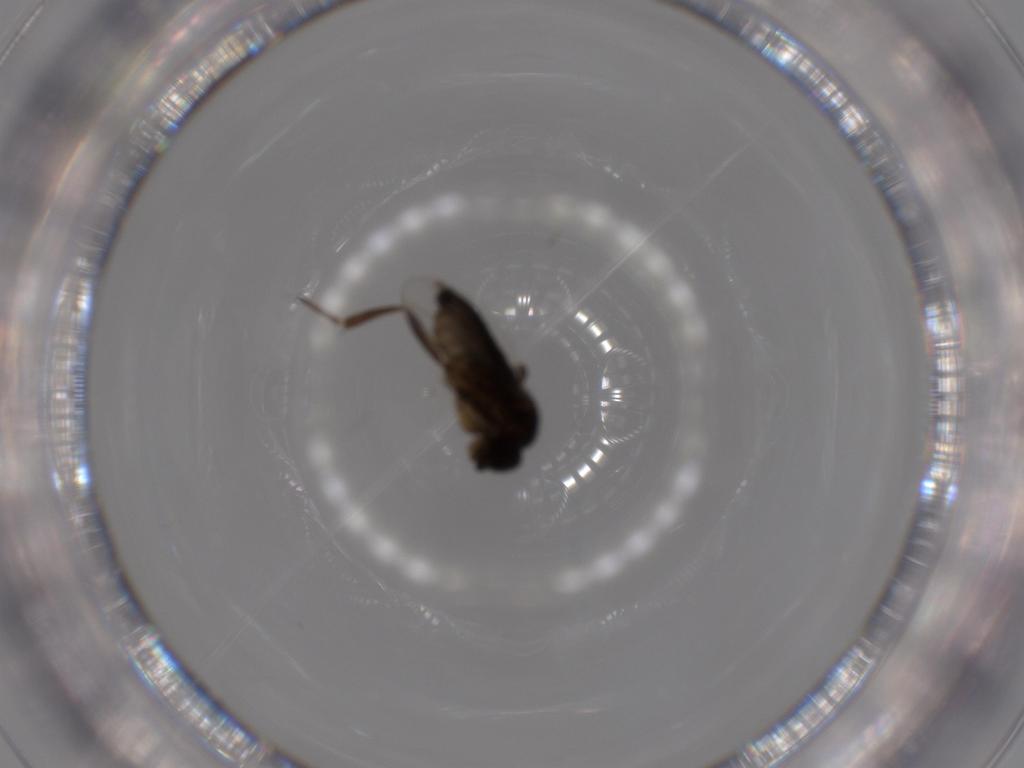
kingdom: Animalia
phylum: Arthropoda
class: Insecta
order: Diptera
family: Phoridae
